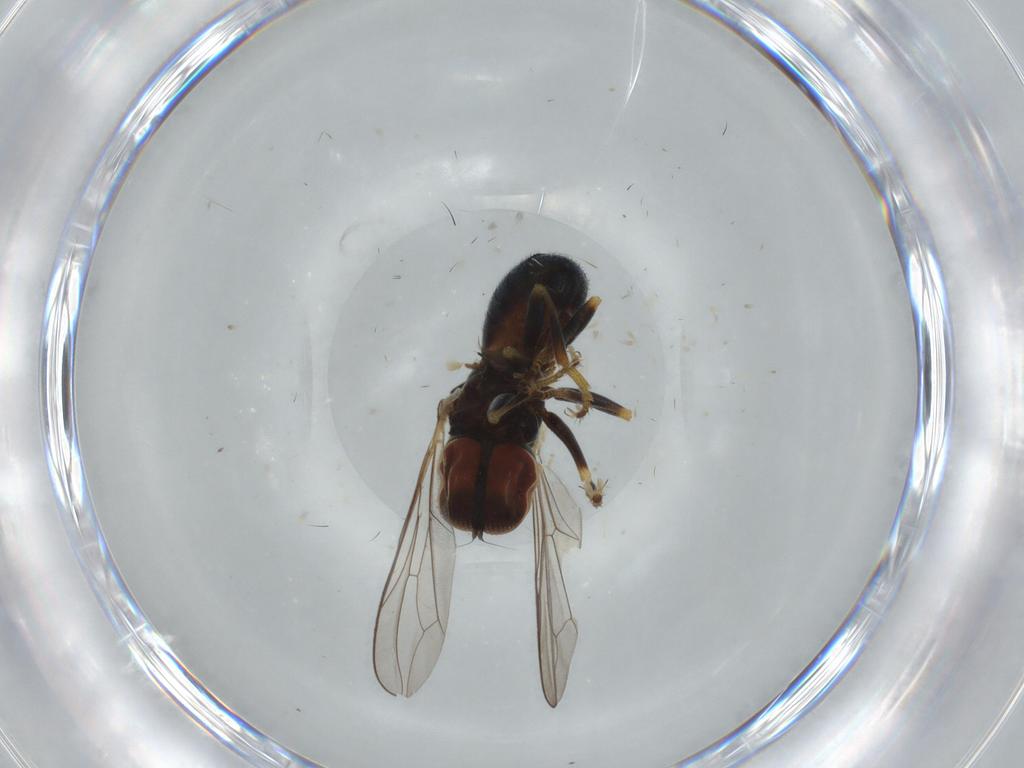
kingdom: Animalia
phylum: Arthropoda
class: Insecta
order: Diptera
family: Pipunculidae
